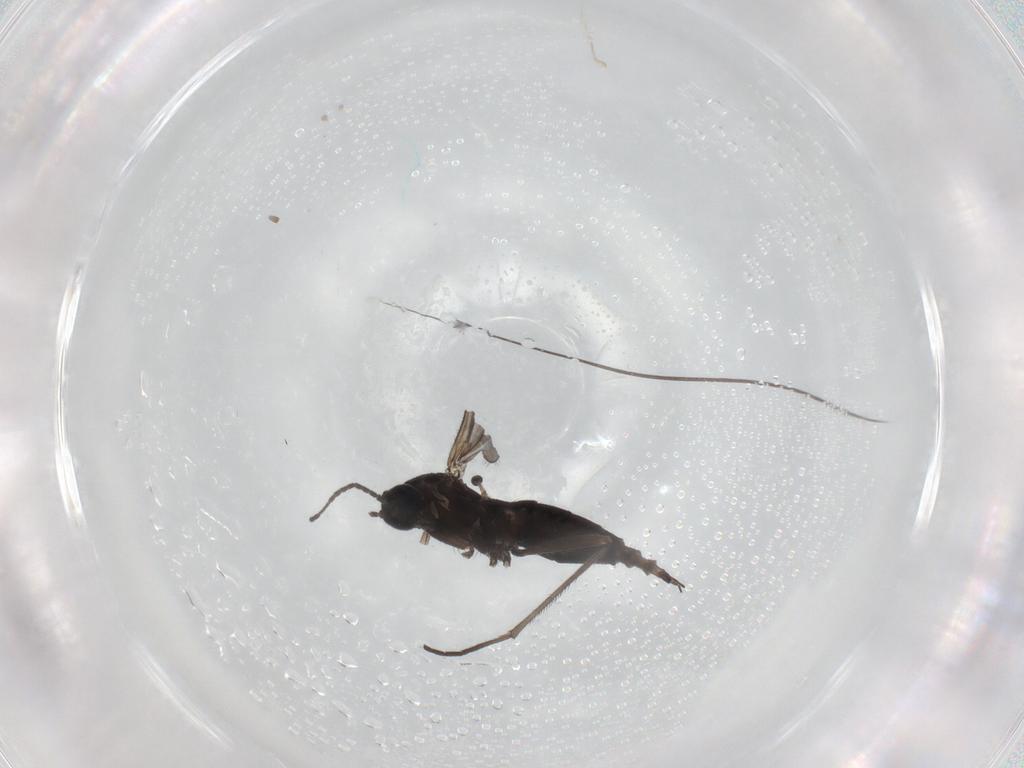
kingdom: Animalia
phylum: Arthropoda
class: Insecta
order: Diptera
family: Sciaridae
